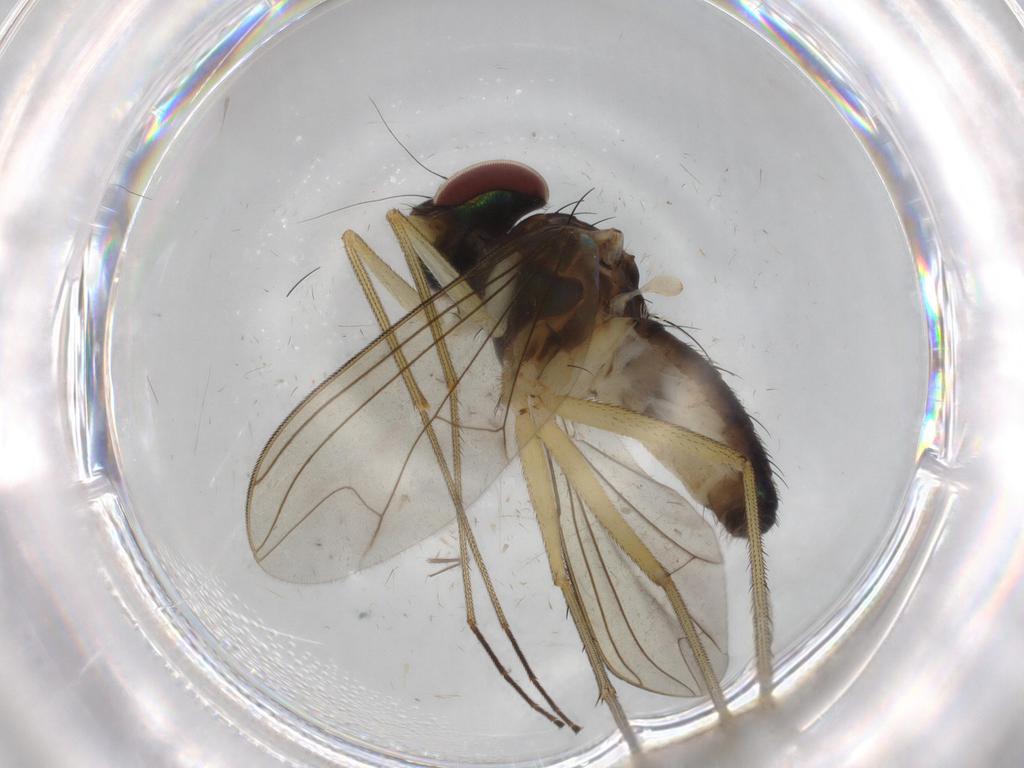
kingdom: Animalia
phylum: Arthropoda
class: Insecta
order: Diptera
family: Dolichopodidae
